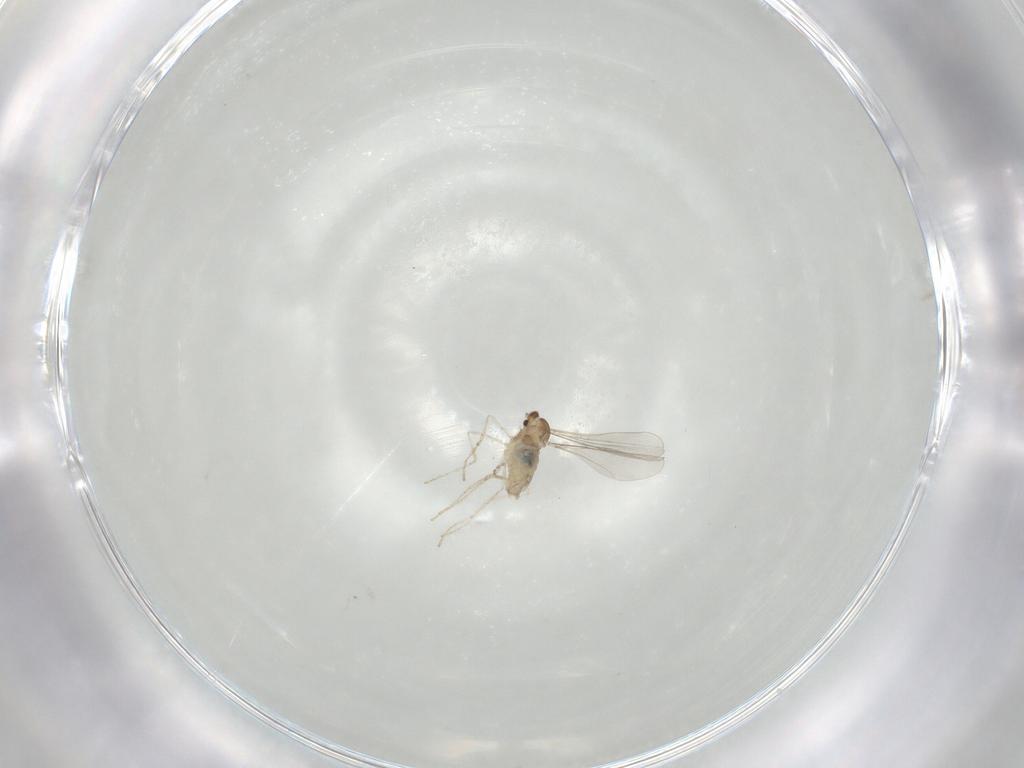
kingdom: Animalia
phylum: Arthropoda
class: Insecta
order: Diptera
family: Cecidomyiidae
